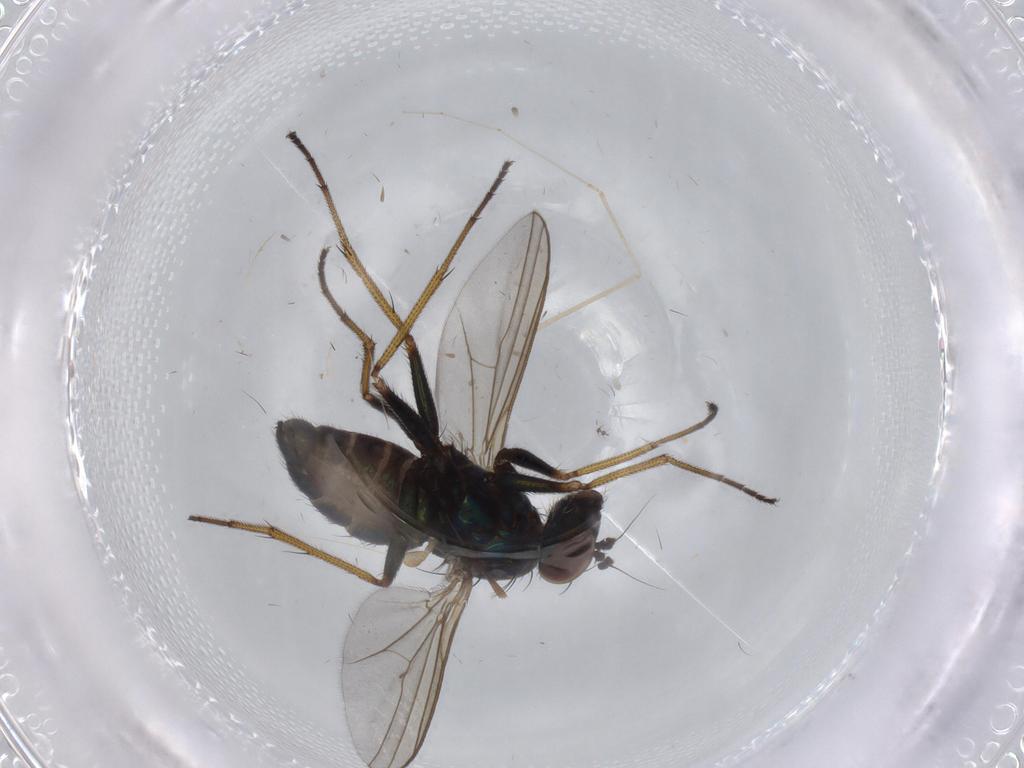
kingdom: Animalia
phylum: Arthropoda
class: Insecta
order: Diptera
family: Dolichopodidae
